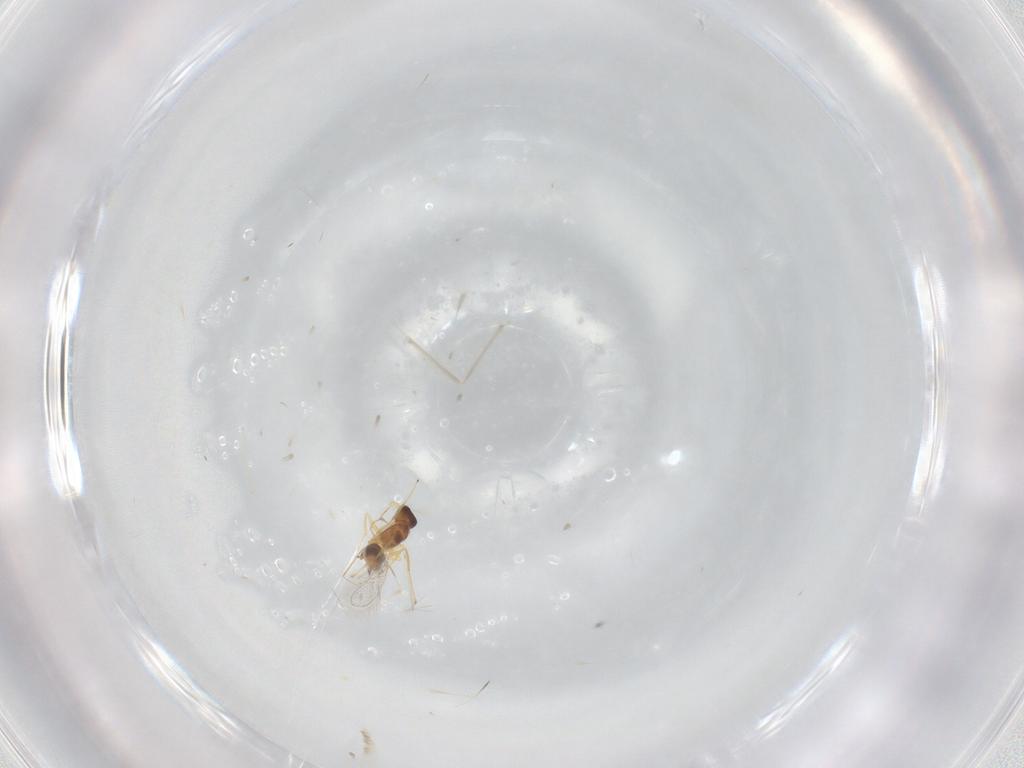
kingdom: Animalia
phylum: Arthropoda
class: Insecta
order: Hymenoptera
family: Mymaridae
